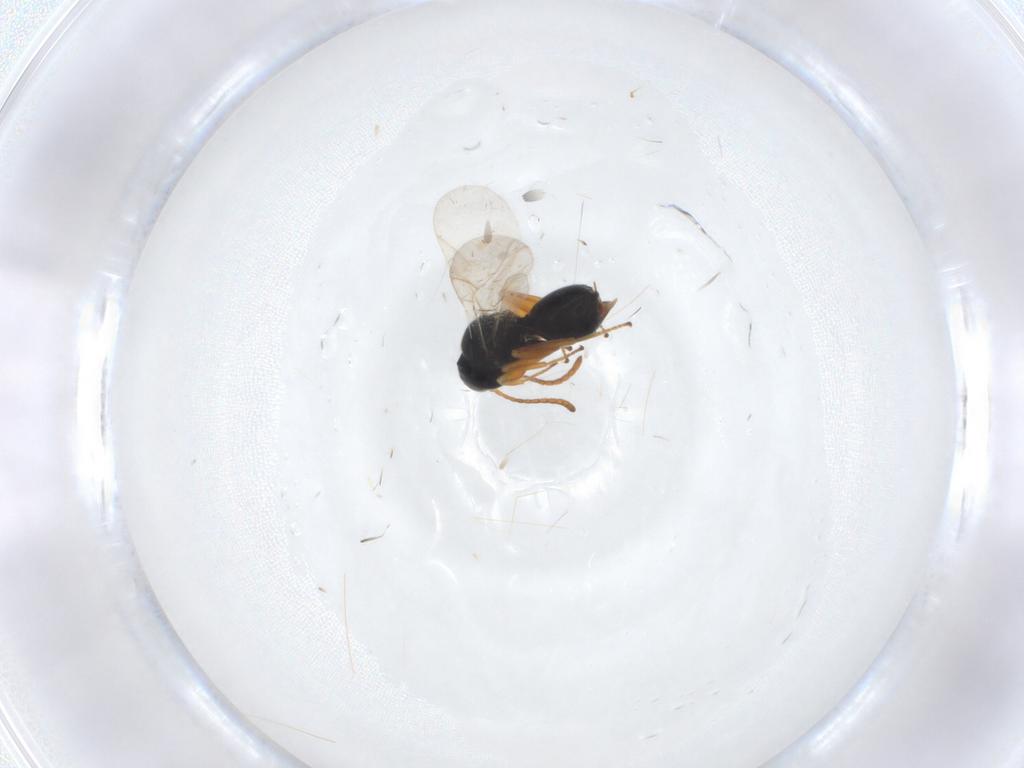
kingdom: Animalia
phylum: Arthropoda
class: Insecta
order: Hymenoptera
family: Cynipidae
